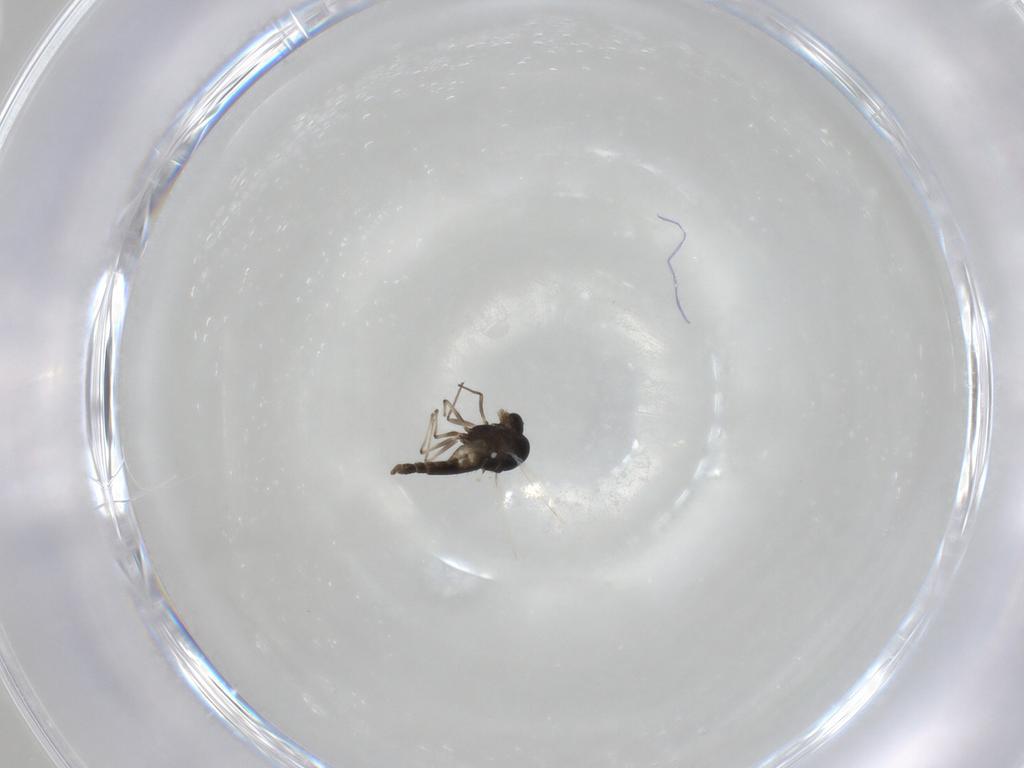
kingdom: Animalia
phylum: Arthropoda
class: Insecta
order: Diptera
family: Chironomidae
